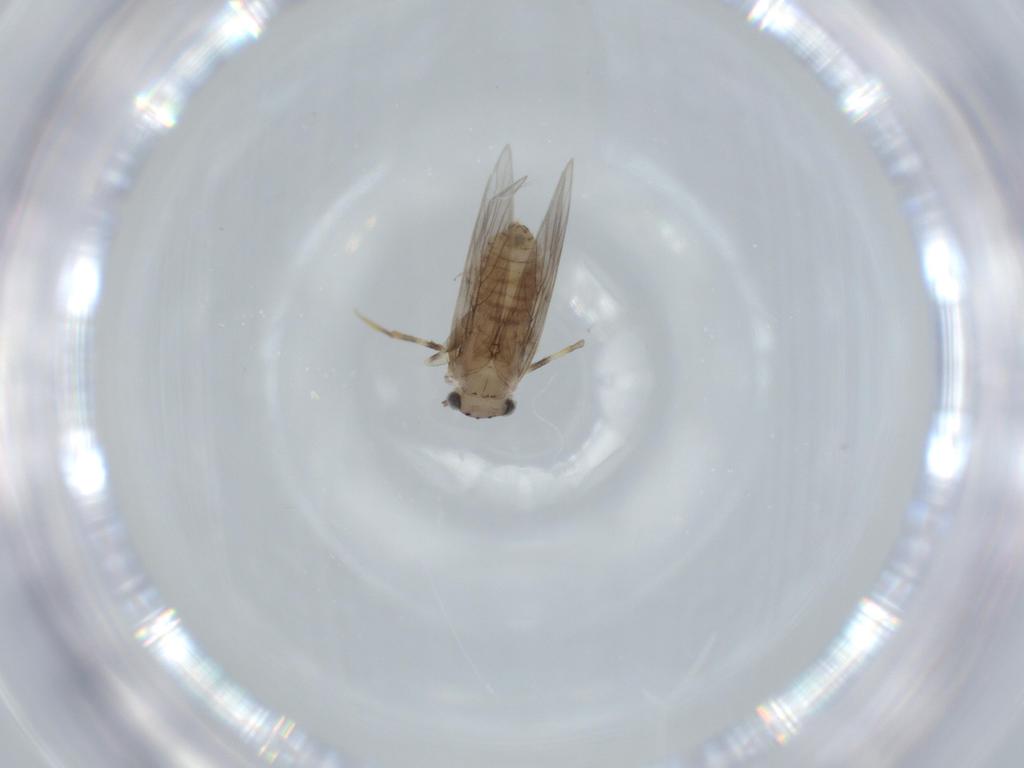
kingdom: Animalia
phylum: Arthropoda
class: Insecta
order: Psocodea
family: Lepidopsocidae
